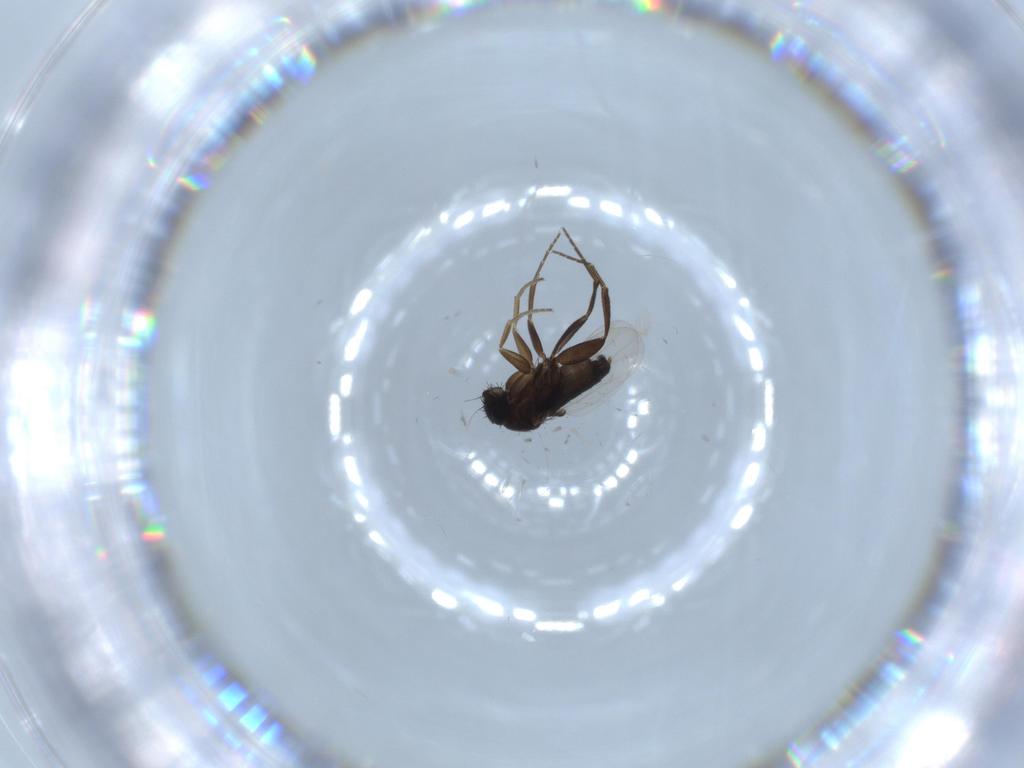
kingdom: Animalia
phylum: Arthropoda
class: Insecta
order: Diptera
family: Phoridae
